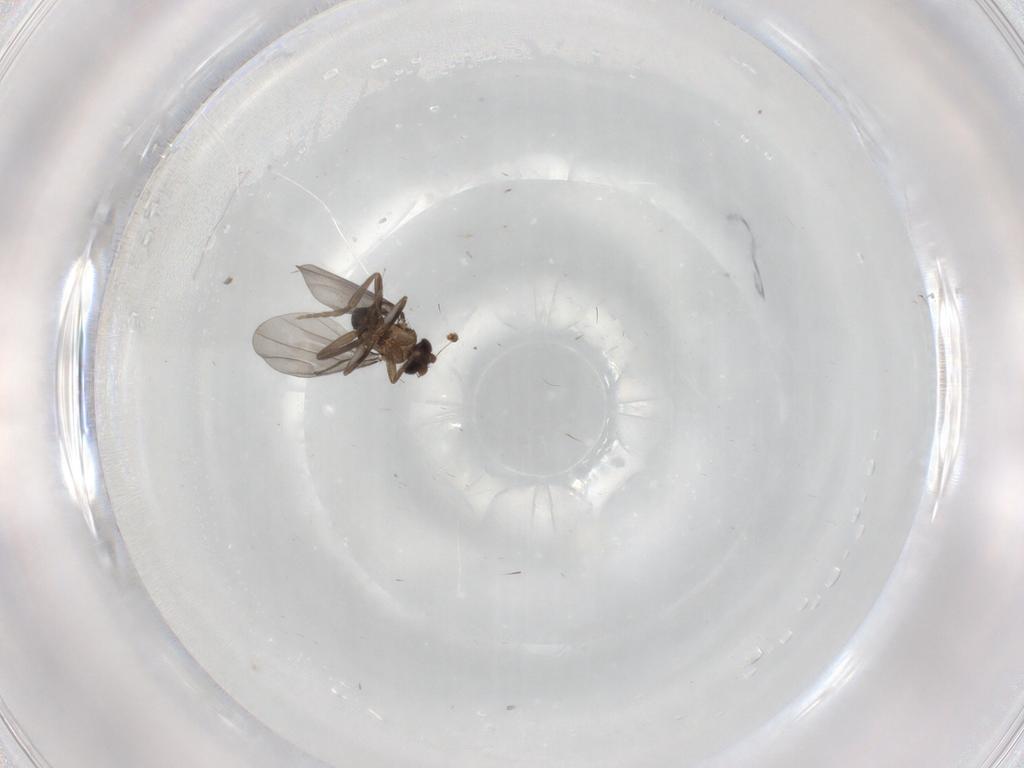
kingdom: Animalia
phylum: Arthropoda
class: Insecta
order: Diptera
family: Phoridae
